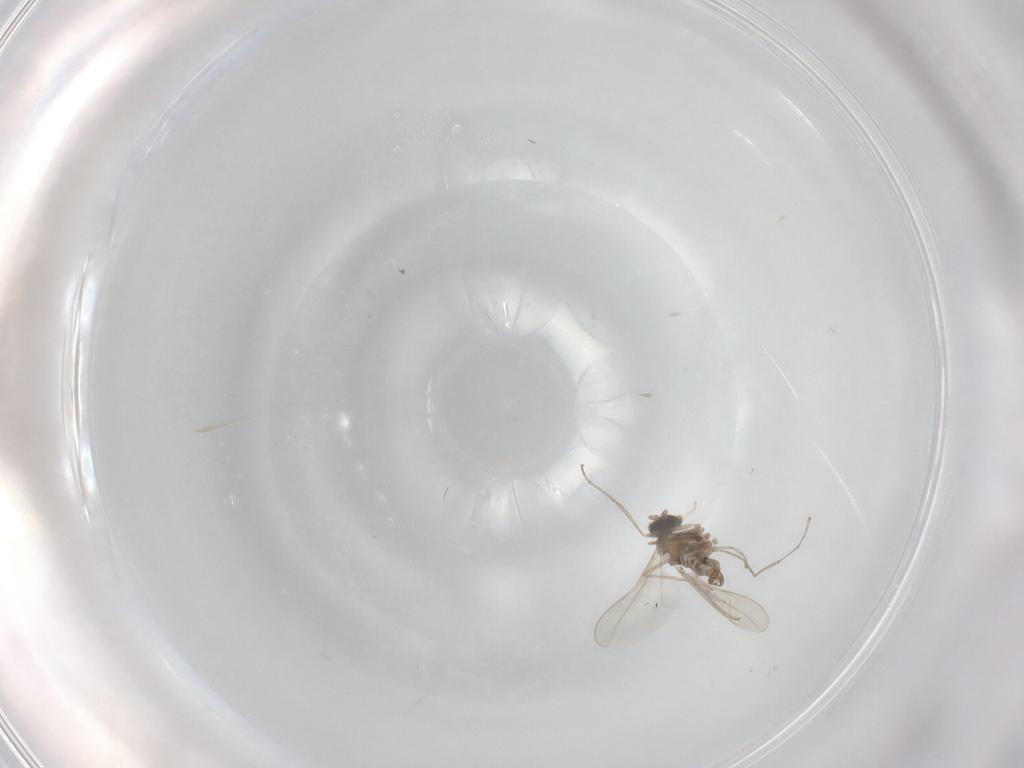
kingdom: Animalia
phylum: Arthropoda
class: Insecta
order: Diptera
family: Cecidomyiidae
